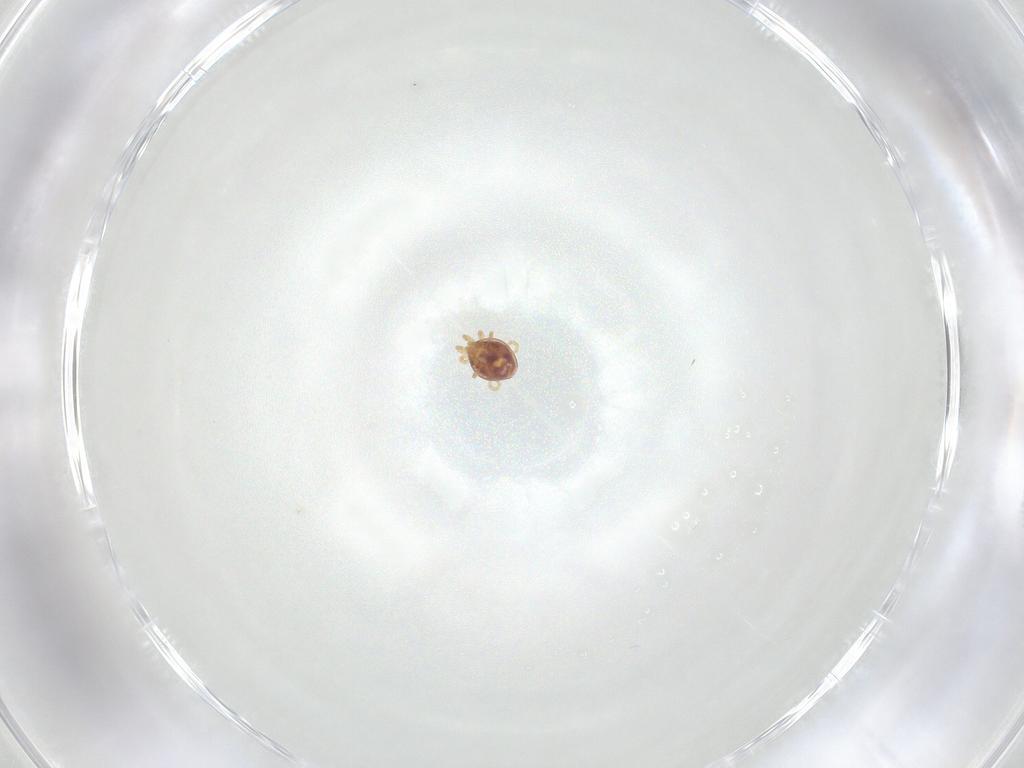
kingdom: Animalia
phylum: Arthropoda
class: Arachnida
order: Mesostigmata
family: Phytoseiidae
